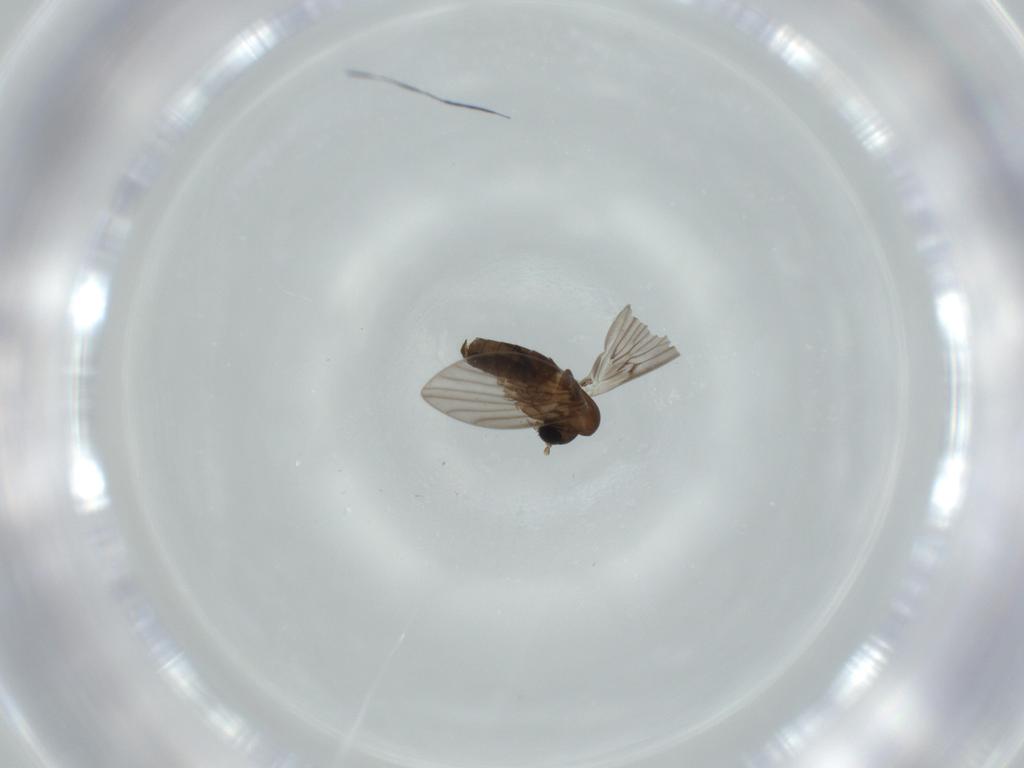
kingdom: Animalia
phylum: Arthropoda
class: Insecta
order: Diptera
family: Psychodidae
